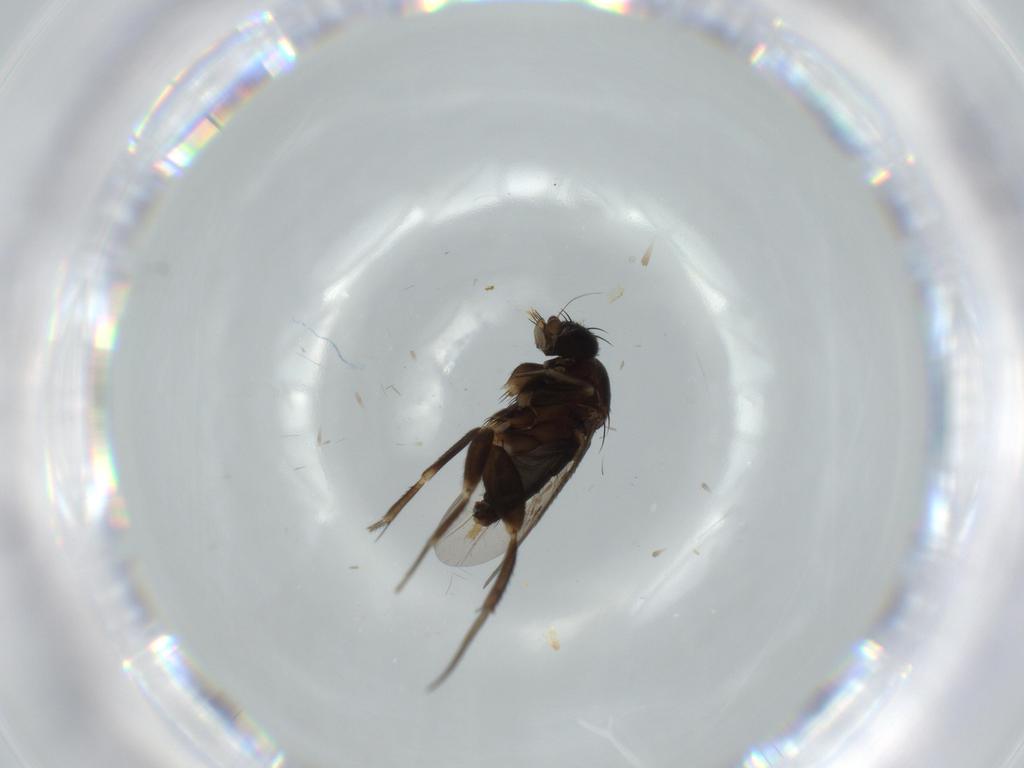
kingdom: Animalia
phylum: Arthropoda
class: Insecta
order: Diptera
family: Phoridae
